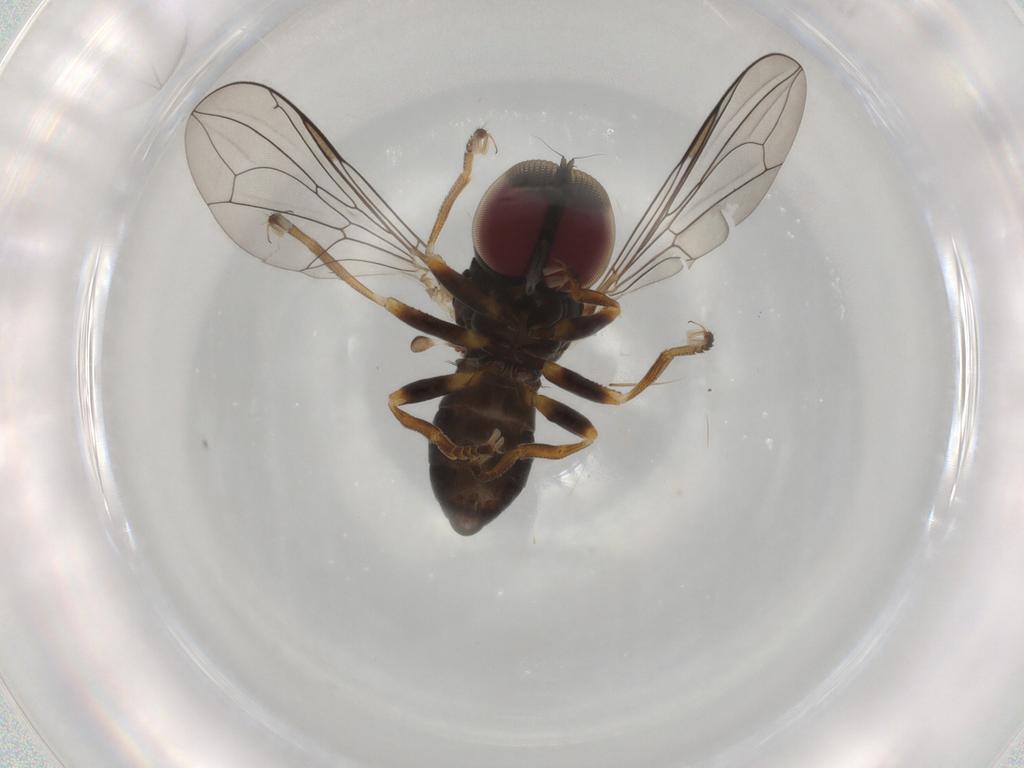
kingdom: Animalia
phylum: Arthropoda
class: Insecta
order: Diptera
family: Pipunculidae
